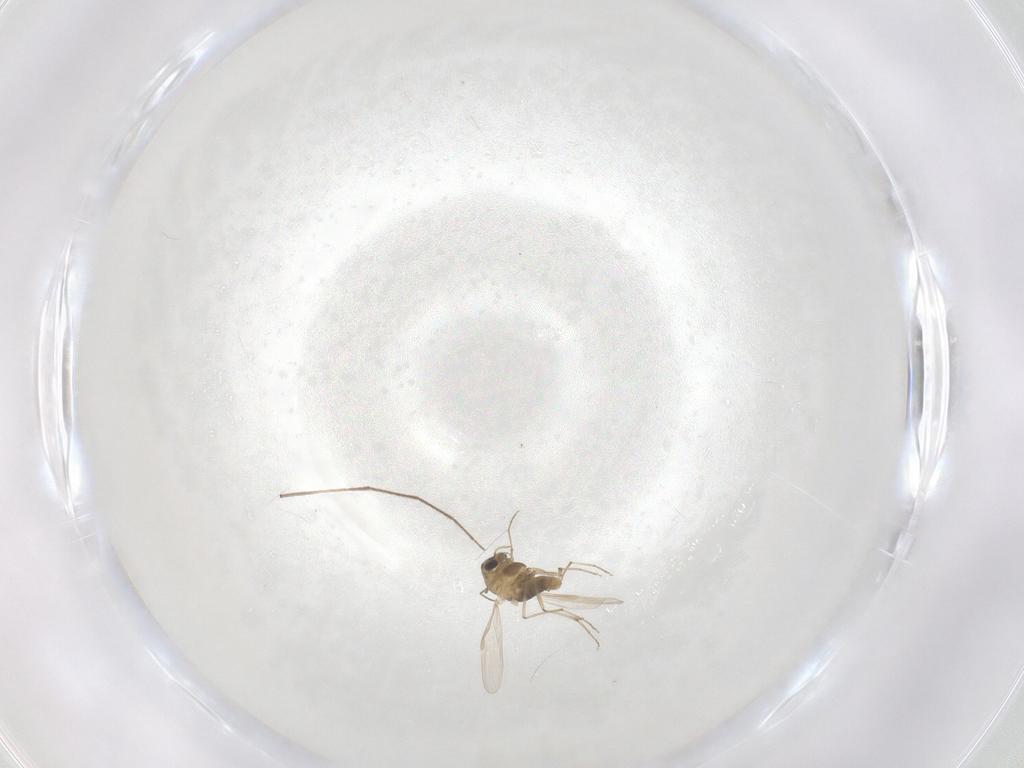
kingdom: Animalia
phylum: Arthropoda
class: Insecta
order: Diptera
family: Chironomidae
